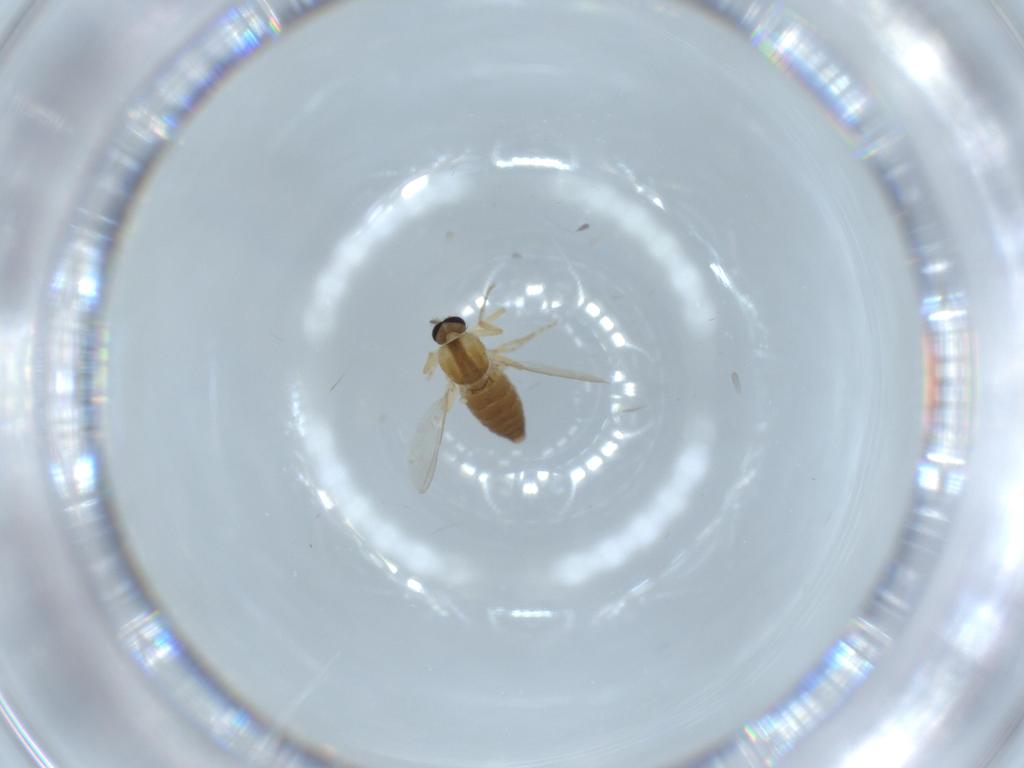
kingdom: Animalia
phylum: Arthropoda
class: Insecta
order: Diptera
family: Ceratopogonidae
